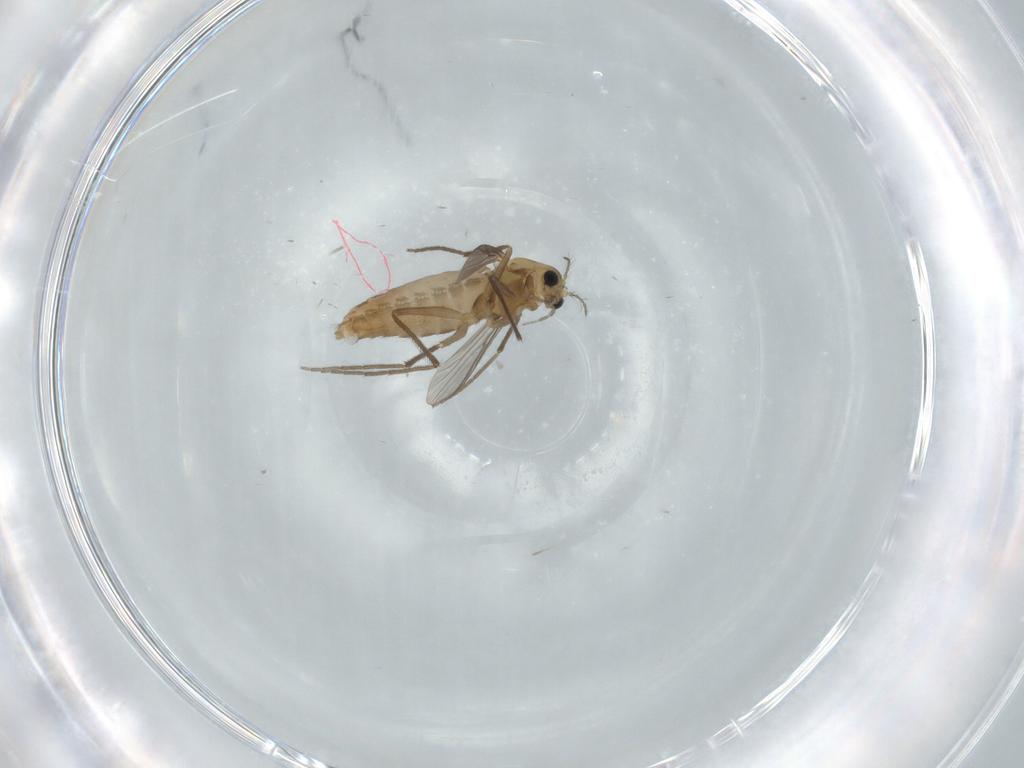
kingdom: Animalia
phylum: Arthropoda
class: Insecta
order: Diptera
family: Chironomidae
